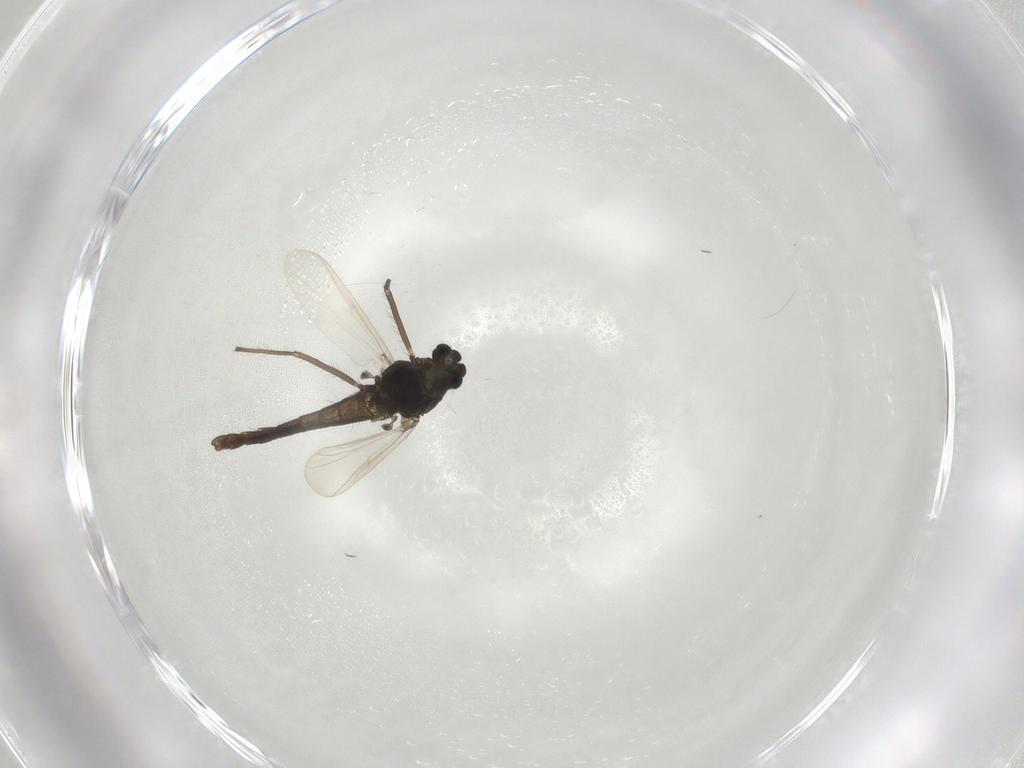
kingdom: Animalia
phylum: Arthropoda
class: Insecta
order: Diptera
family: Chironomidae
